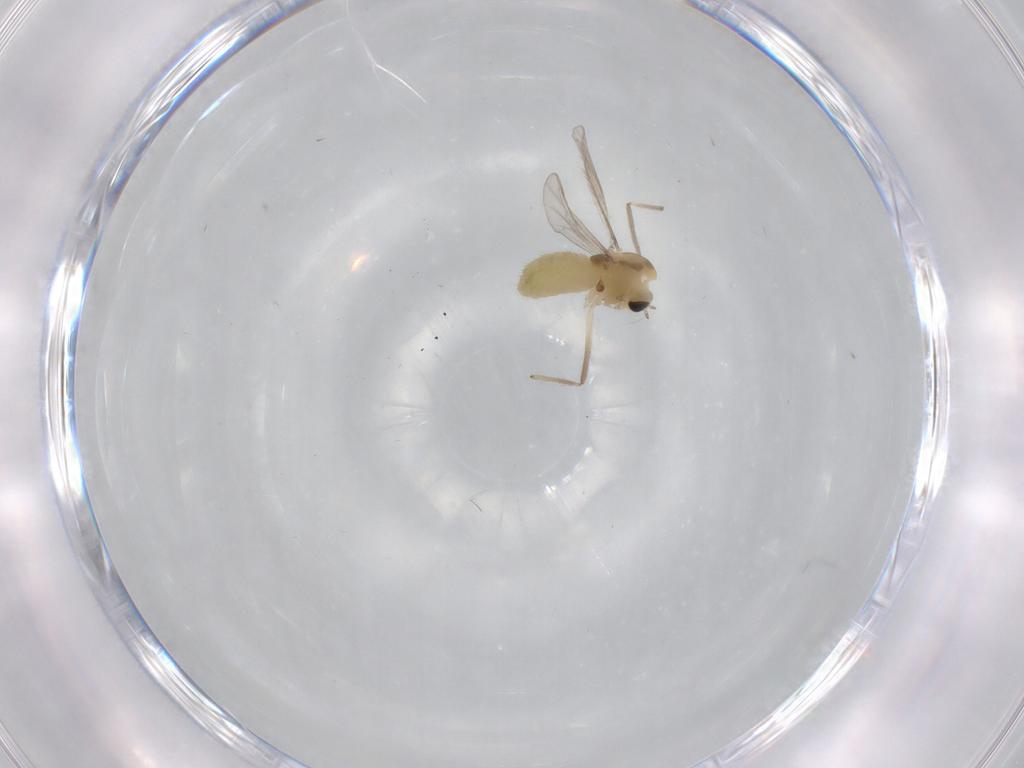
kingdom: Animalia
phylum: Arthropoda
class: Insecta
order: Diptera
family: Chironomidae
